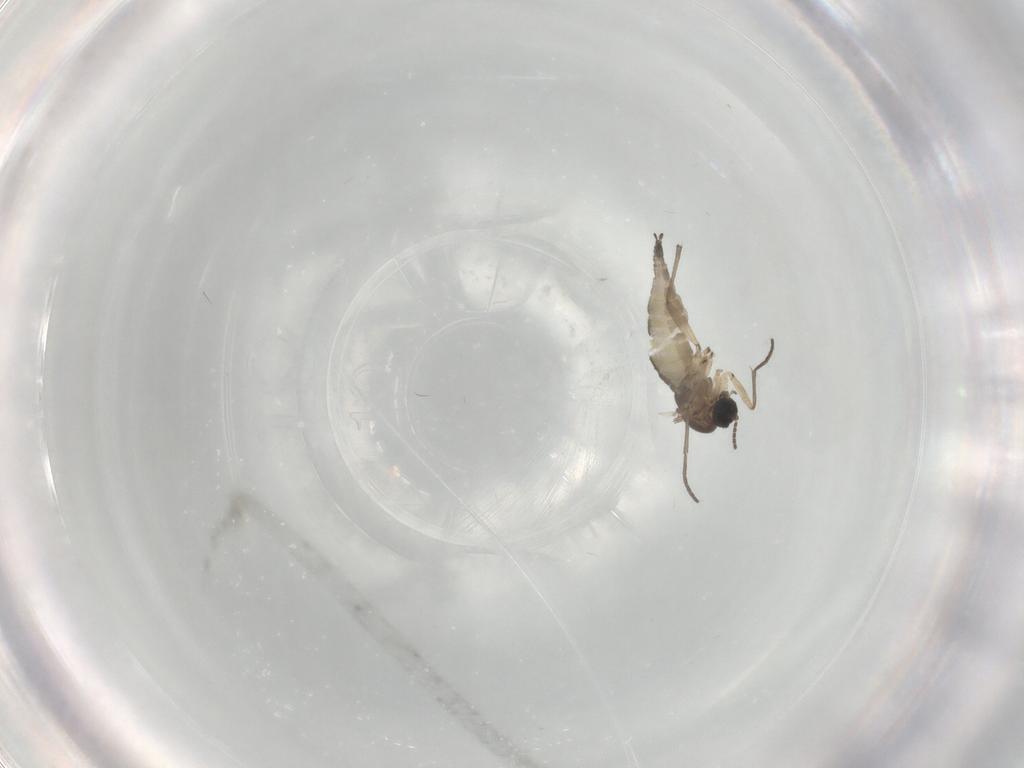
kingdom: Animalia
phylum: Arthropoda
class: Insecta
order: Diptera
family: Sciaridae
